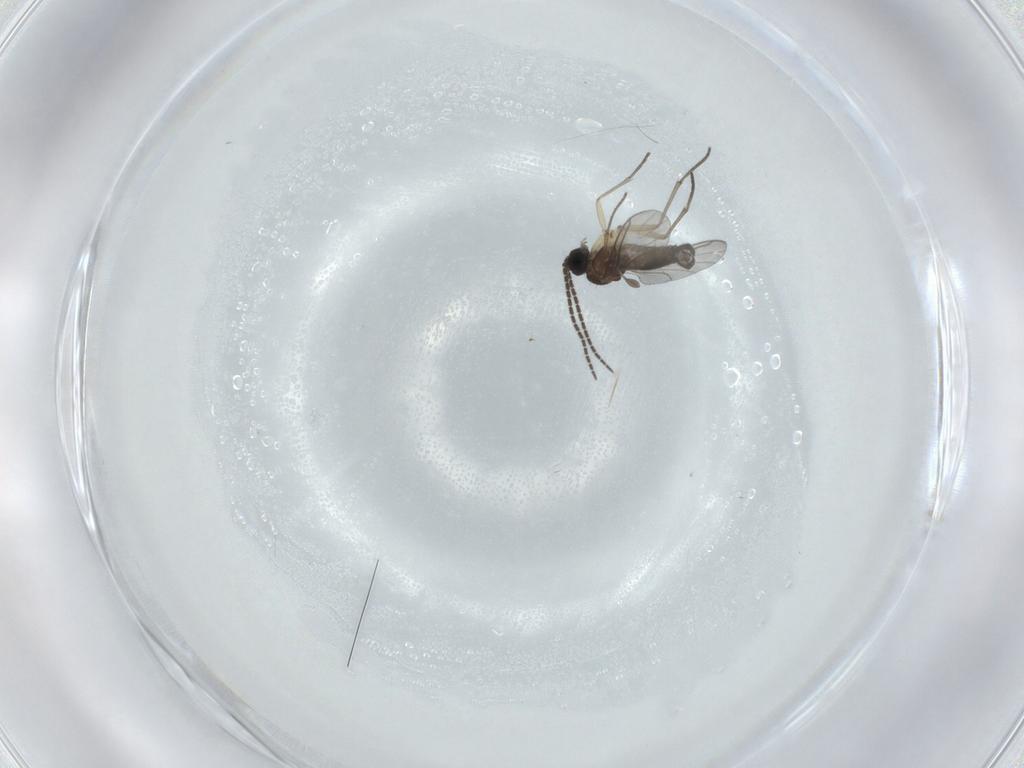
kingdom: Animalia
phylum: Arthropoda
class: Insecta
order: Diptera
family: Sciaridae
